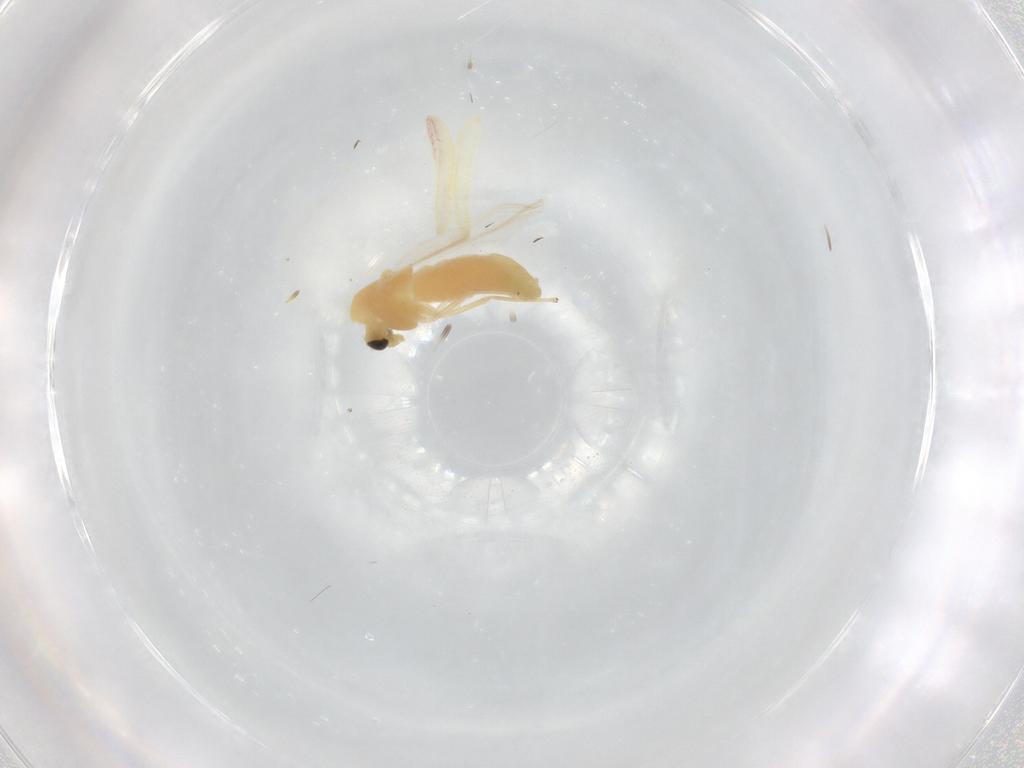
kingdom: Animalia
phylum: Arthropoda
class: Insecta
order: Diptera
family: Chironomidae
